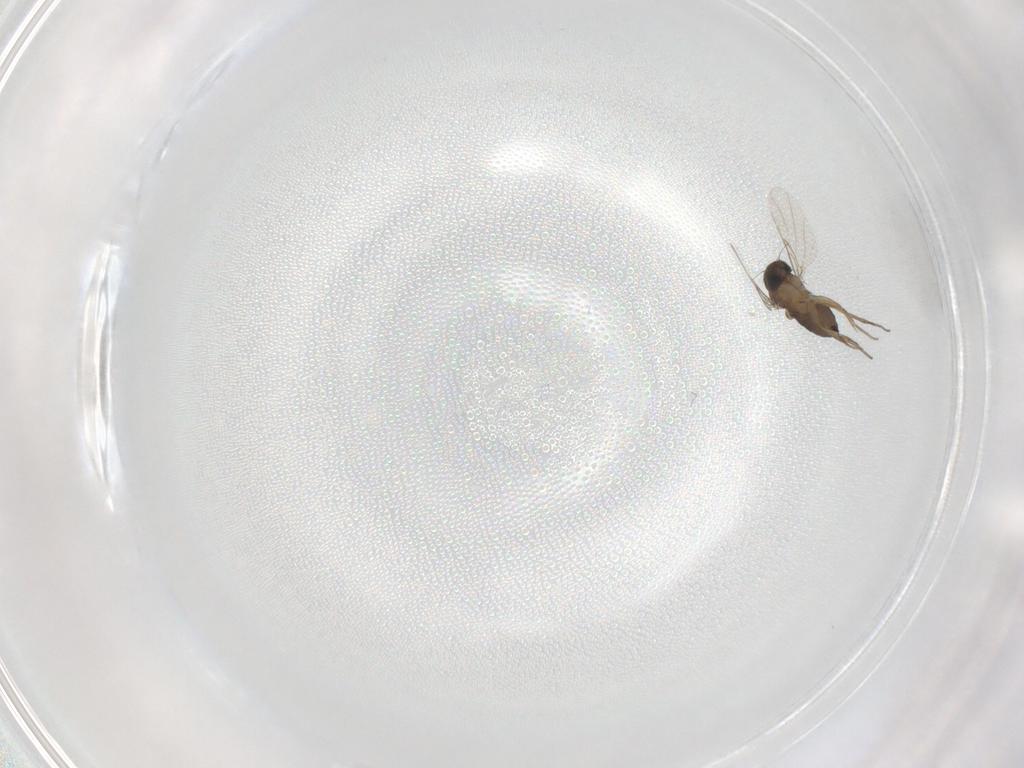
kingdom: Animalia
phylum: Arthropoda
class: Insecta
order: Diptera
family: Phoridae
